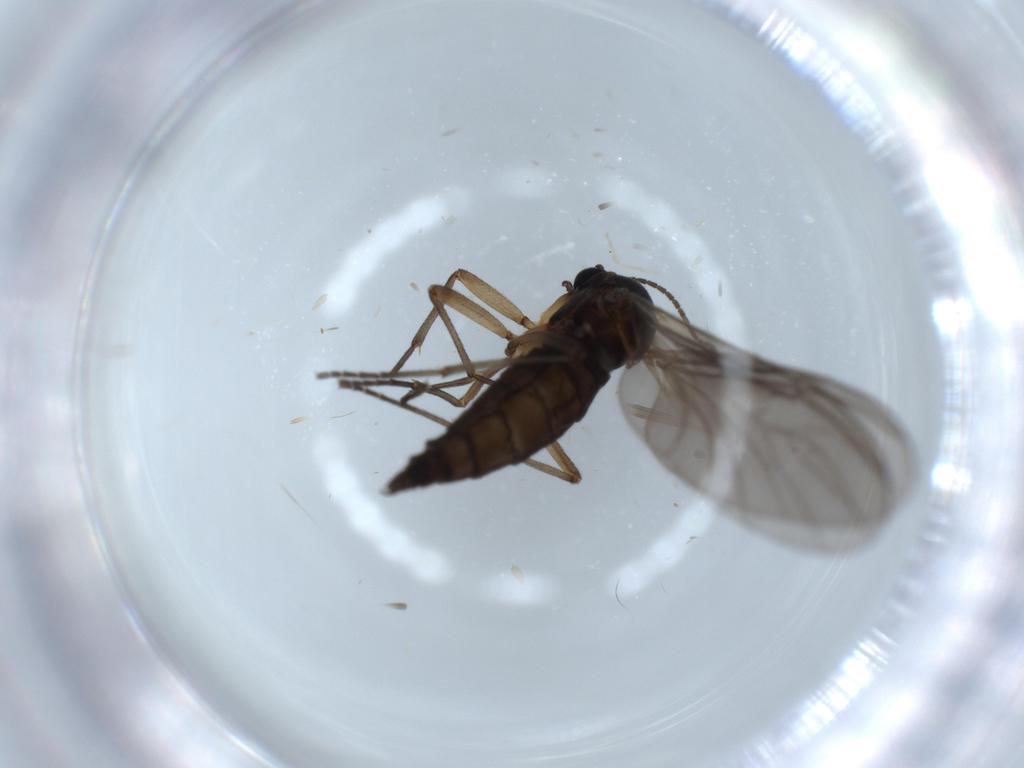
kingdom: Animalia
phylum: Arthropoda
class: Insecta
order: Diptera
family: Sciaridae
